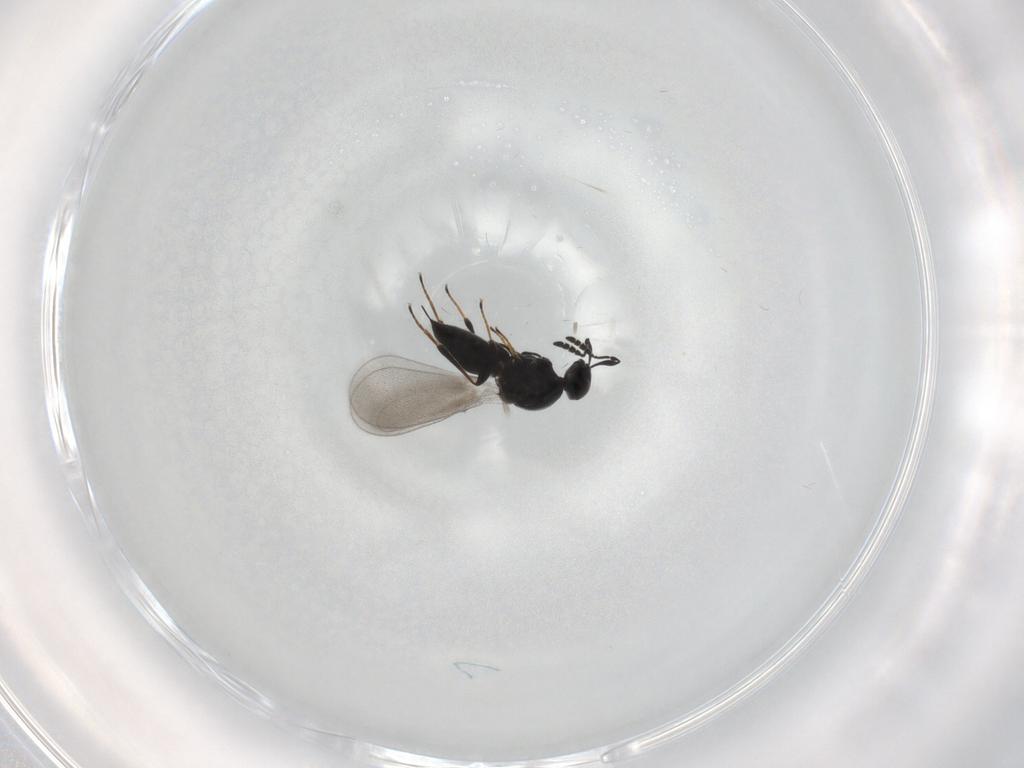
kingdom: Animalia
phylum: Arthropoda
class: Insecta
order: Hymenoptera
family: Platygastridae
